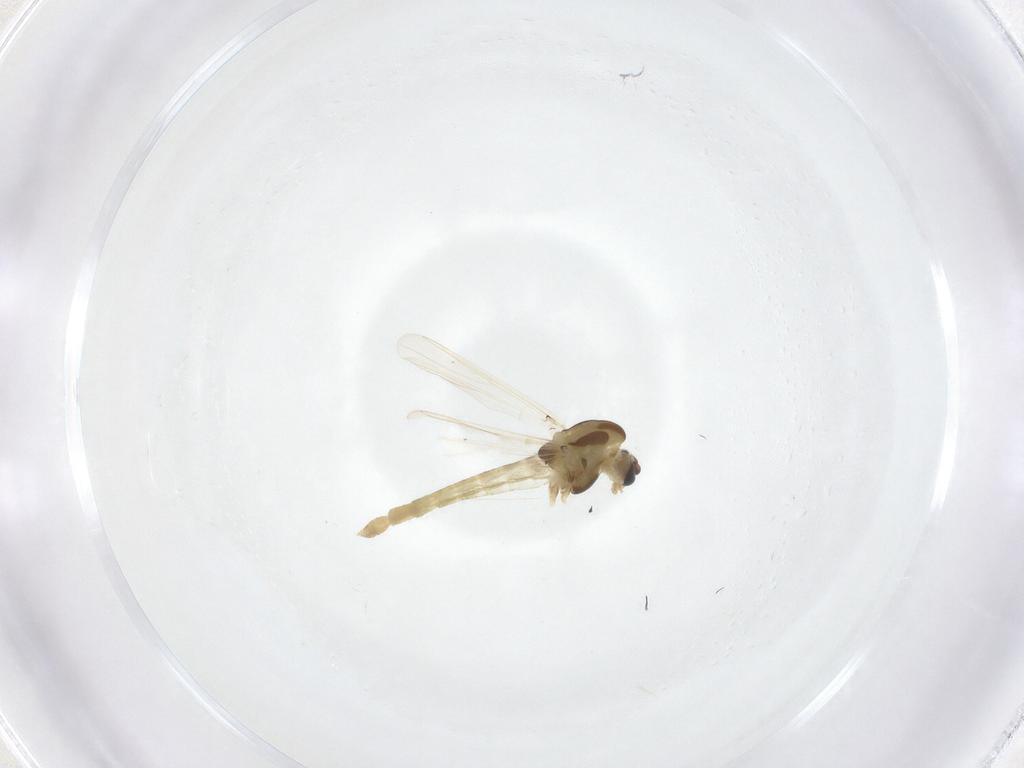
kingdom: Animalia
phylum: Arthropoda
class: Insecta
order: Diptera
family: Chironomidae
